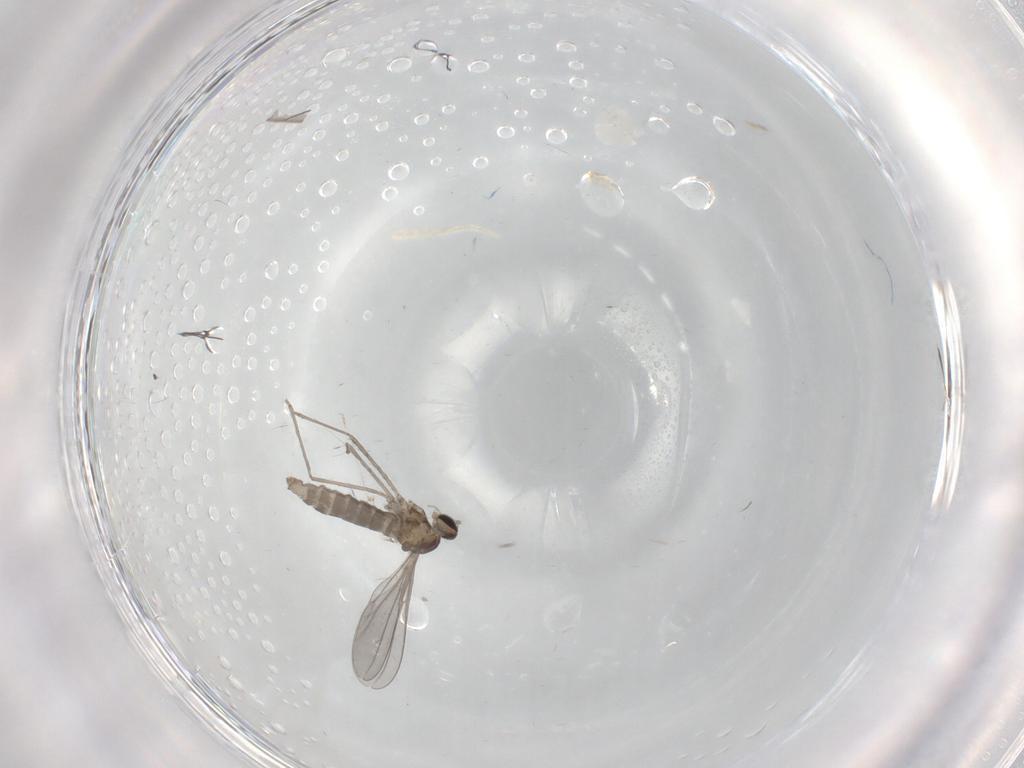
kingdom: Animalia
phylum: Arthropoda
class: Insecta
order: Diptera
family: Cecidomyiidae
